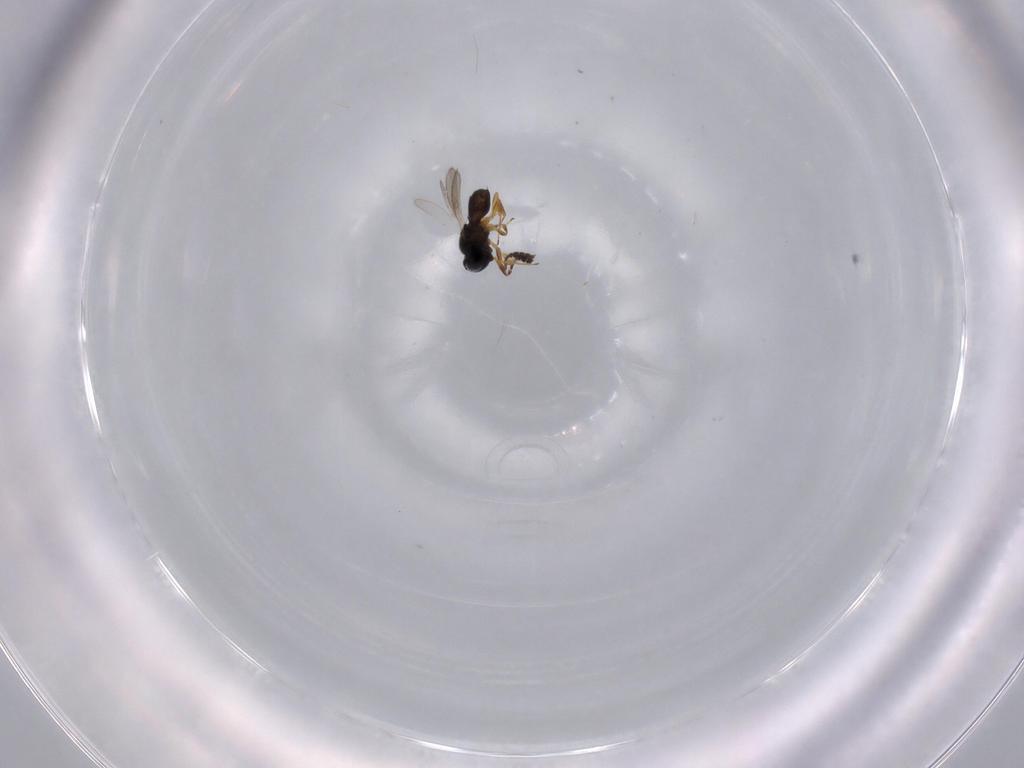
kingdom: Animalia
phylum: Arthropoda
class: Insecta
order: Hymenoptera
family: Scelionidae
